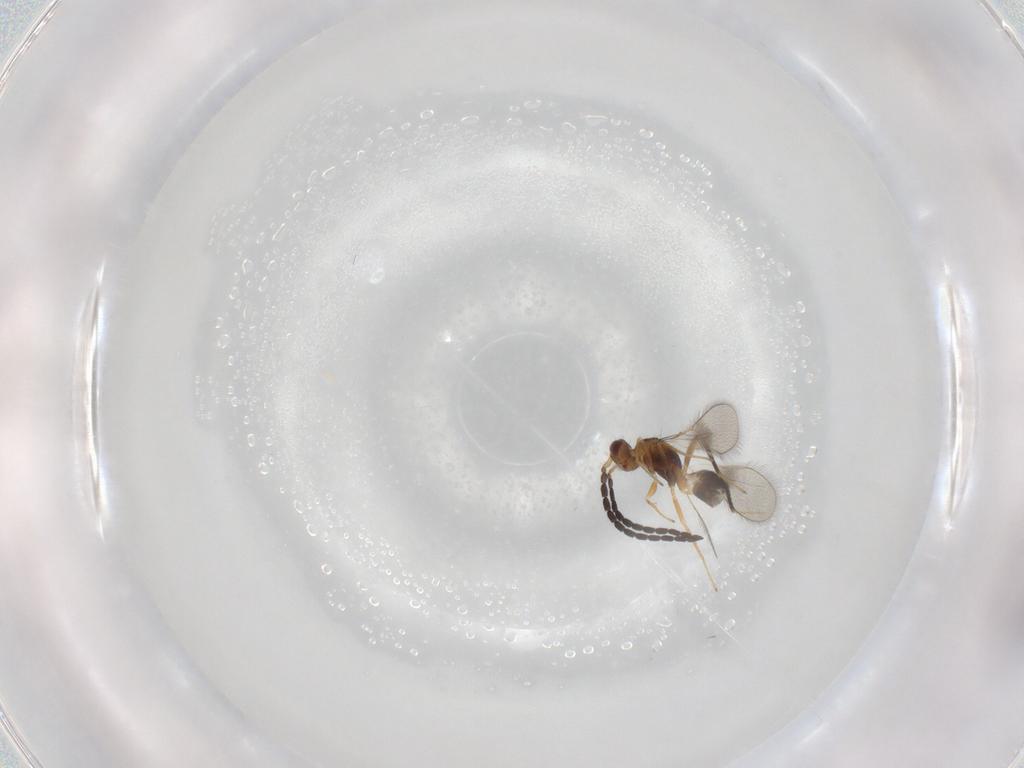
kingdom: Animalia
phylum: Arthropoda
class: Insecta
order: Hymenoptera
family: Mymaridae
